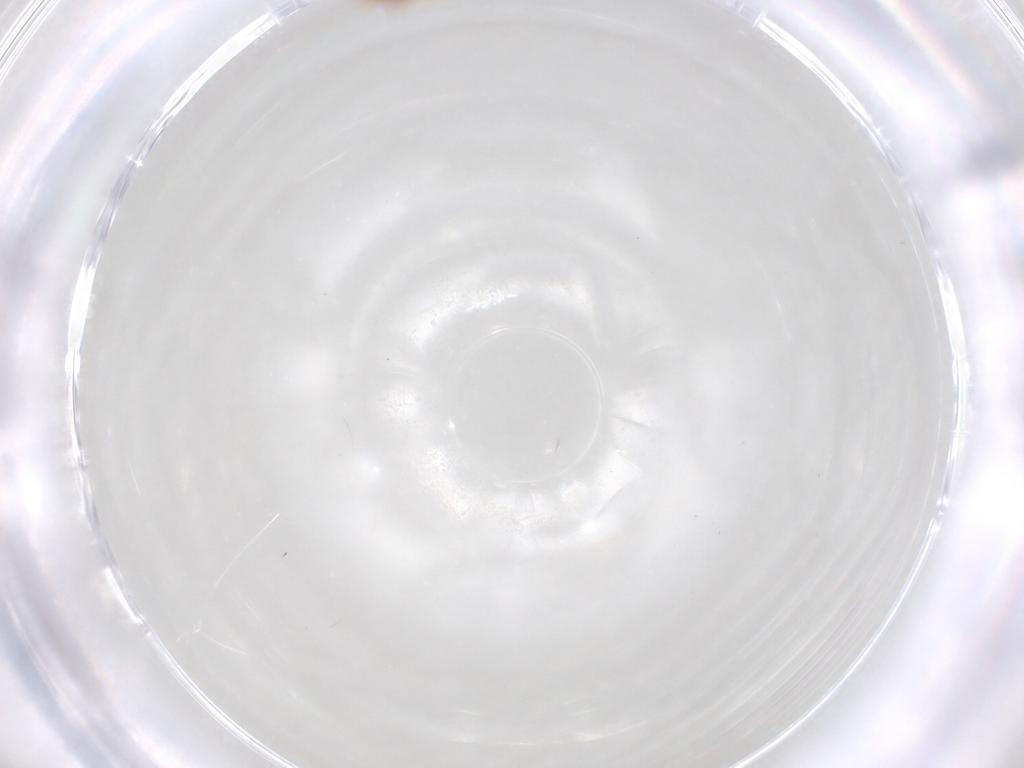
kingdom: Animalia
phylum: Arthropoda
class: Insecta
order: Diptera
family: Cecidomyiidae
